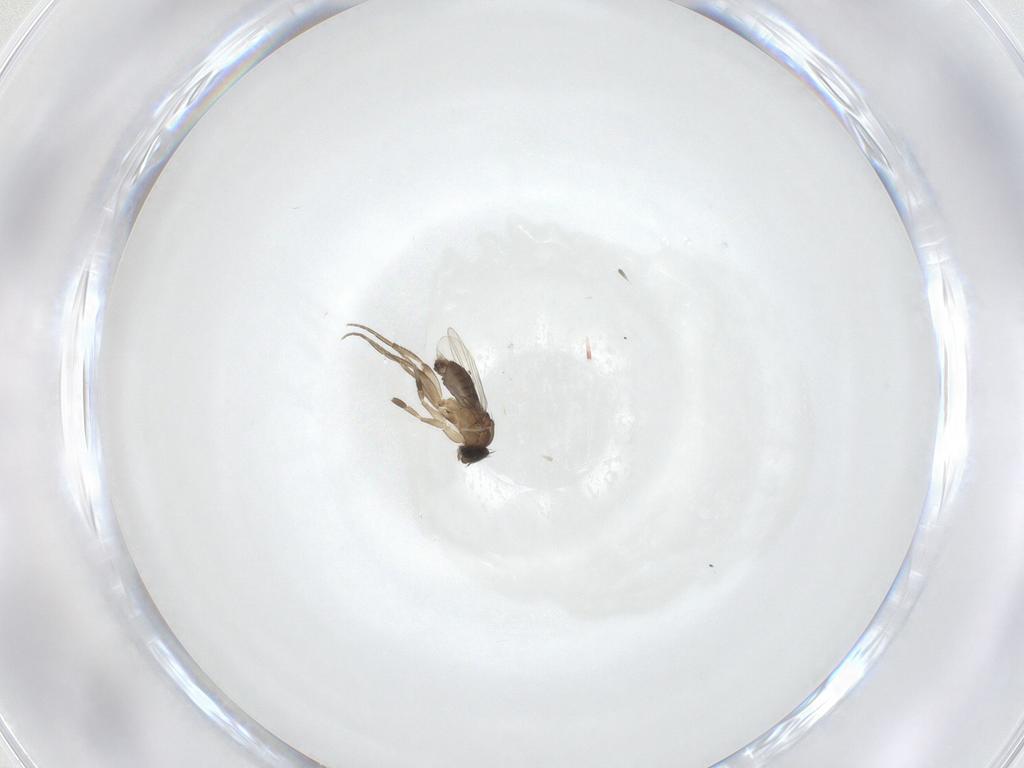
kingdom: Animalia
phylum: Arthropoda
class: Insecta
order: Diptera
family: Phoridae
